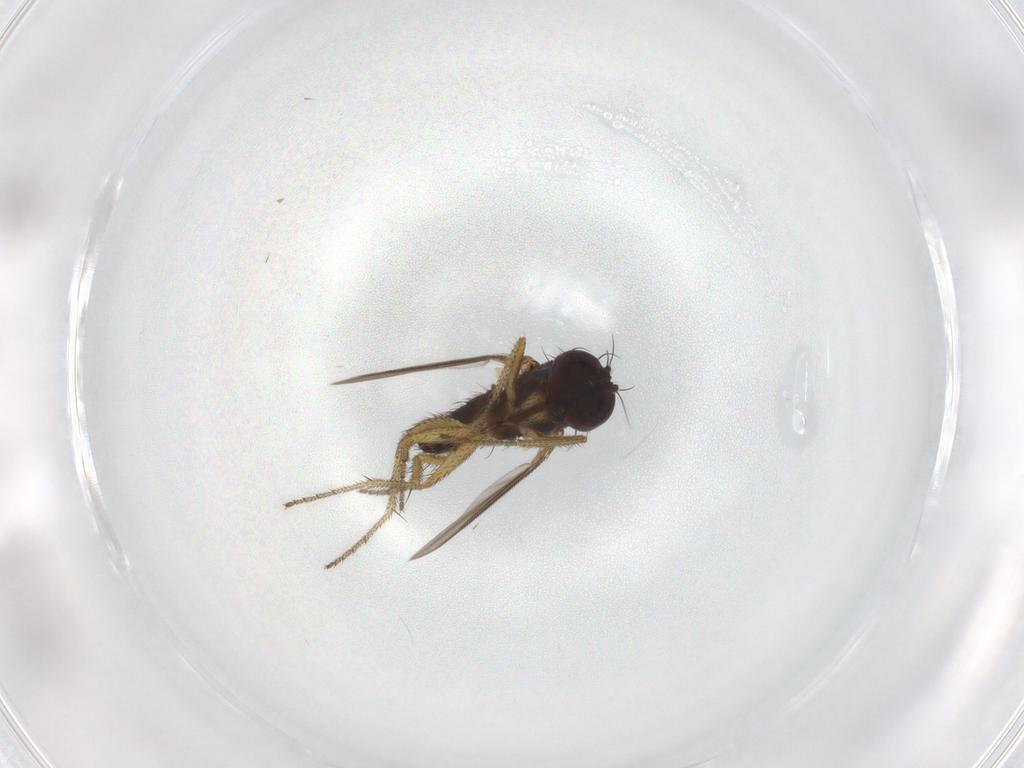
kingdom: Animalia
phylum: Arthropoda
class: Insecta
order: Diptera
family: Dolichopodidae
